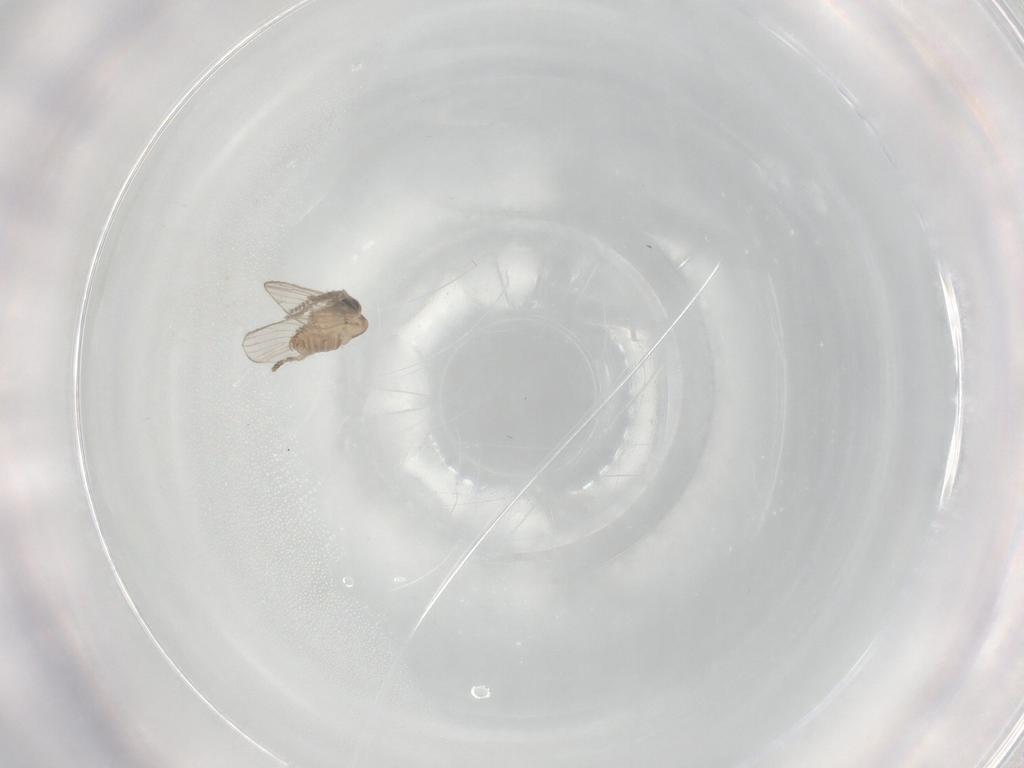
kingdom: Animalia
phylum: Arthropoda
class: Insecta
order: Diptera
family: Psychodidae
